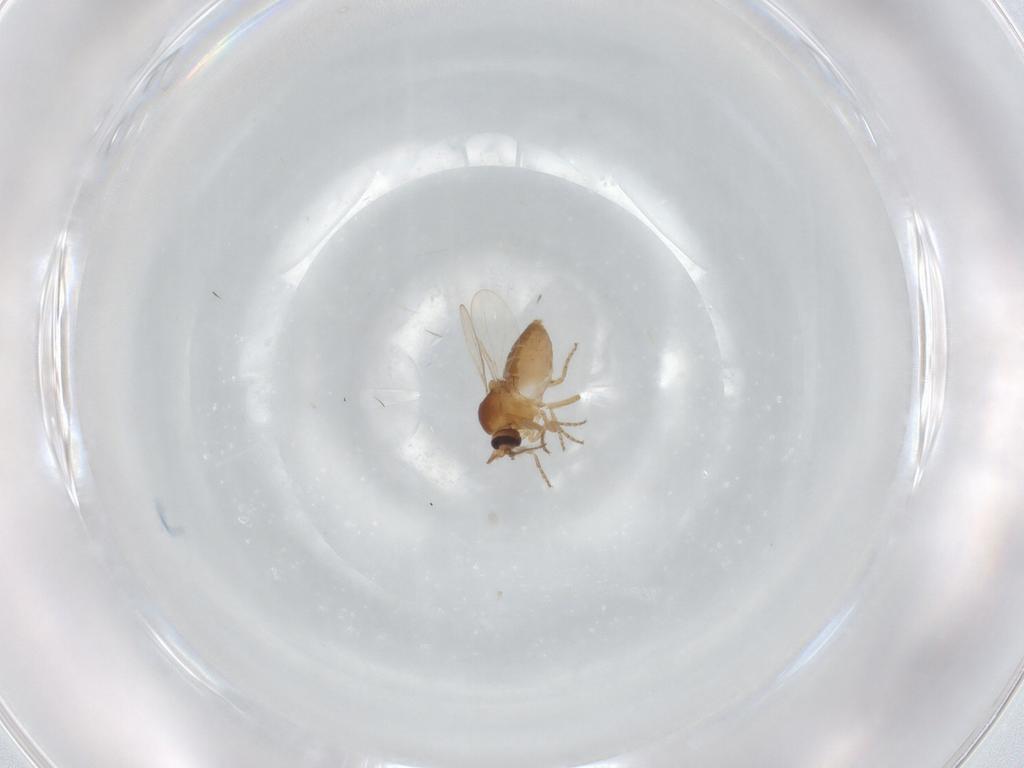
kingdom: Animalia
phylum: Arthropoda
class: Insecta
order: Diptera
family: Ceratopogonidae
